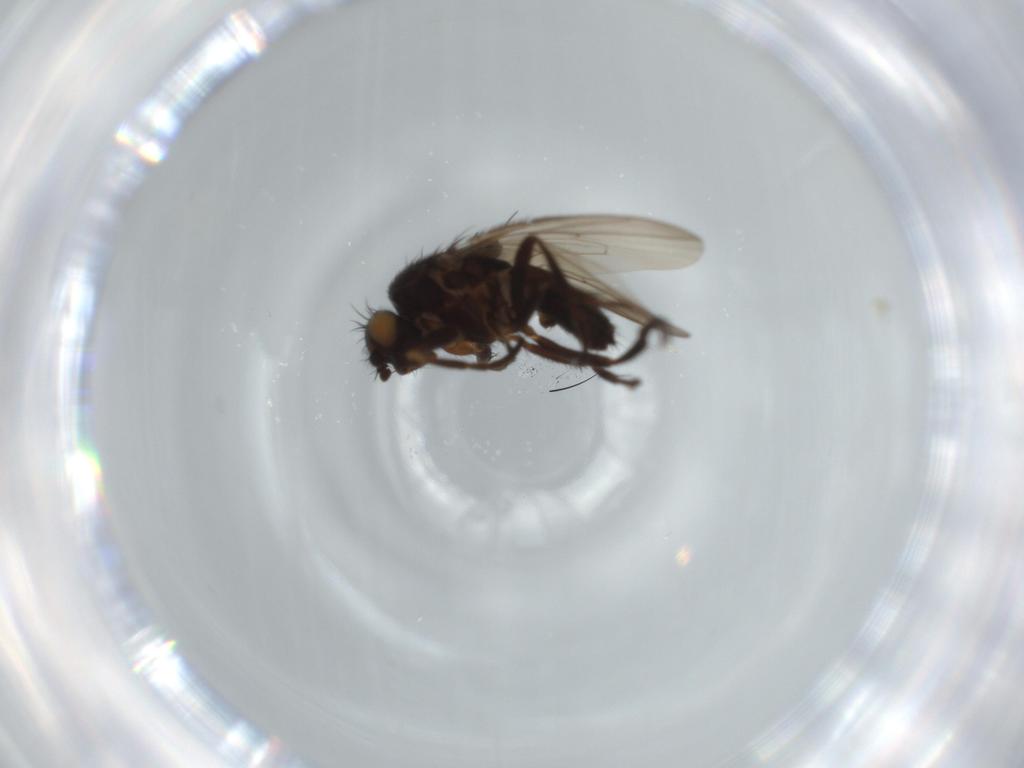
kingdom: Animalia
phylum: Arthropoda
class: Insecta
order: Diptera
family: Sphaeroceridae
